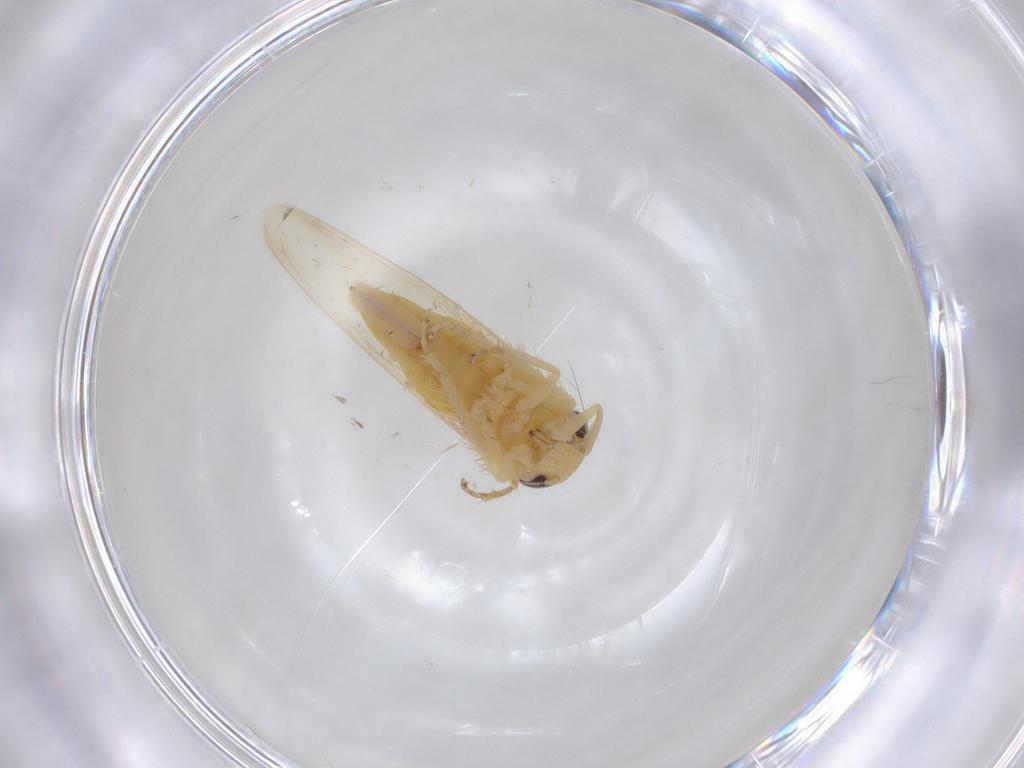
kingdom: Animalia
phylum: Arthropoda
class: Insecta
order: Hemiptera
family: Cicadellidae
